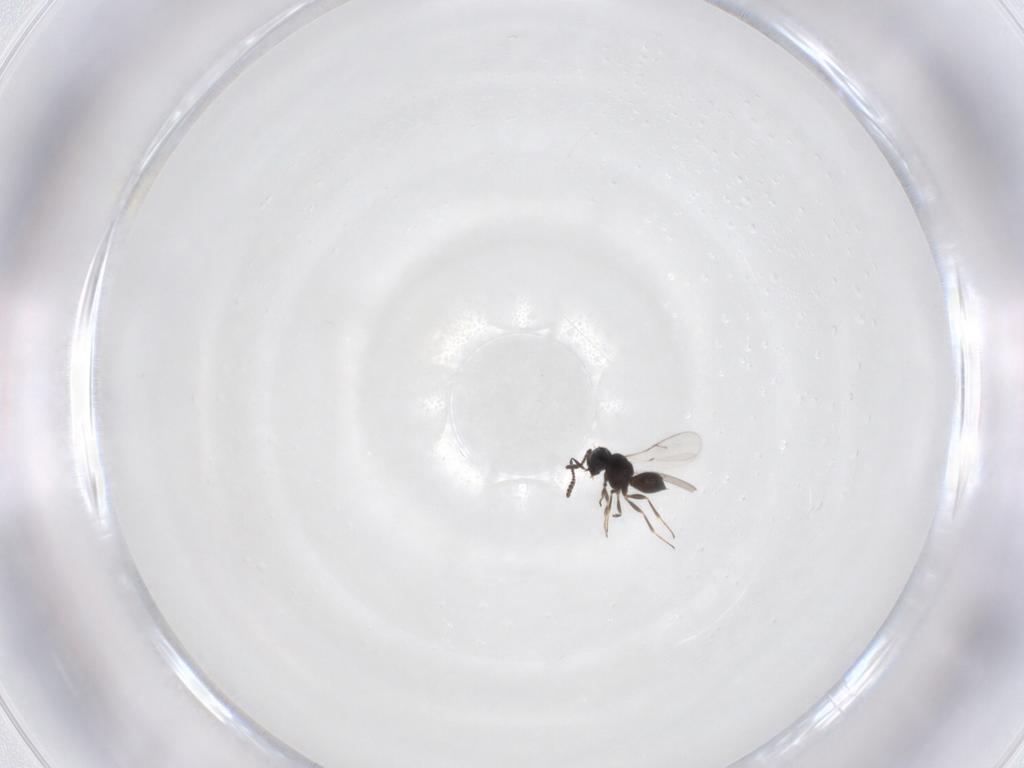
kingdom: Animalia
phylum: Arthropoda
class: Insecta
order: Hymenoptera
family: Scelionidae
